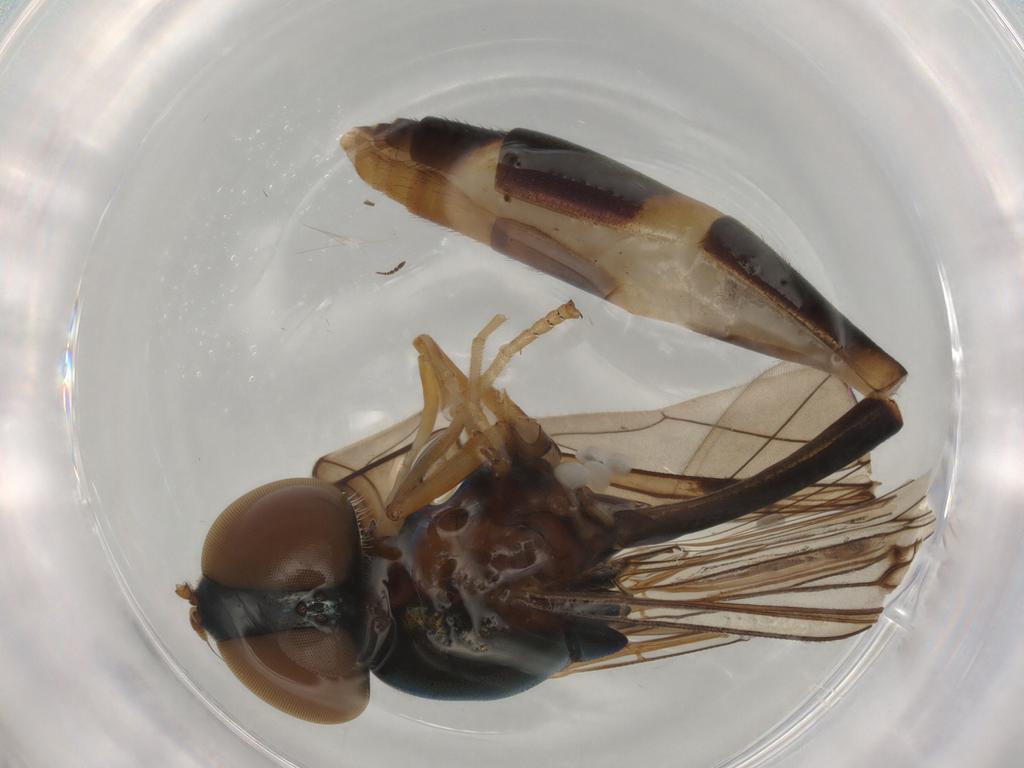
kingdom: Animalia
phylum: Arthropoda
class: Insecta
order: Diptera
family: Syrphidae
